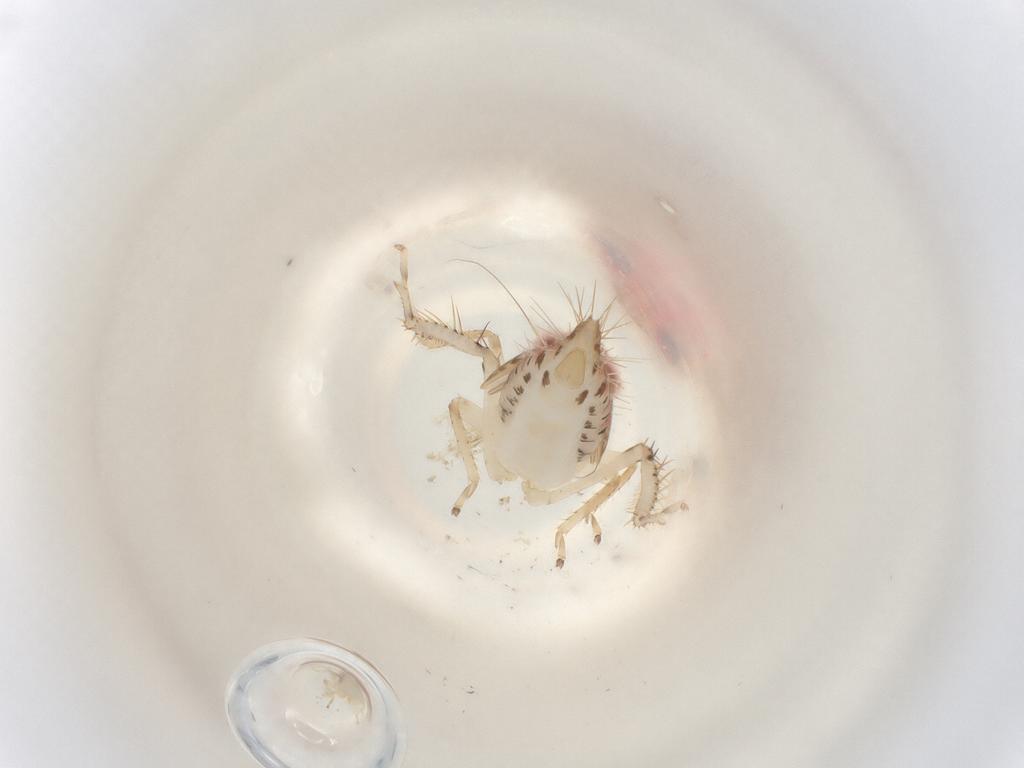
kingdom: Animalia
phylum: Arthropoda
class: Insecta
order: Hemiptera
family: Cicadellidae
